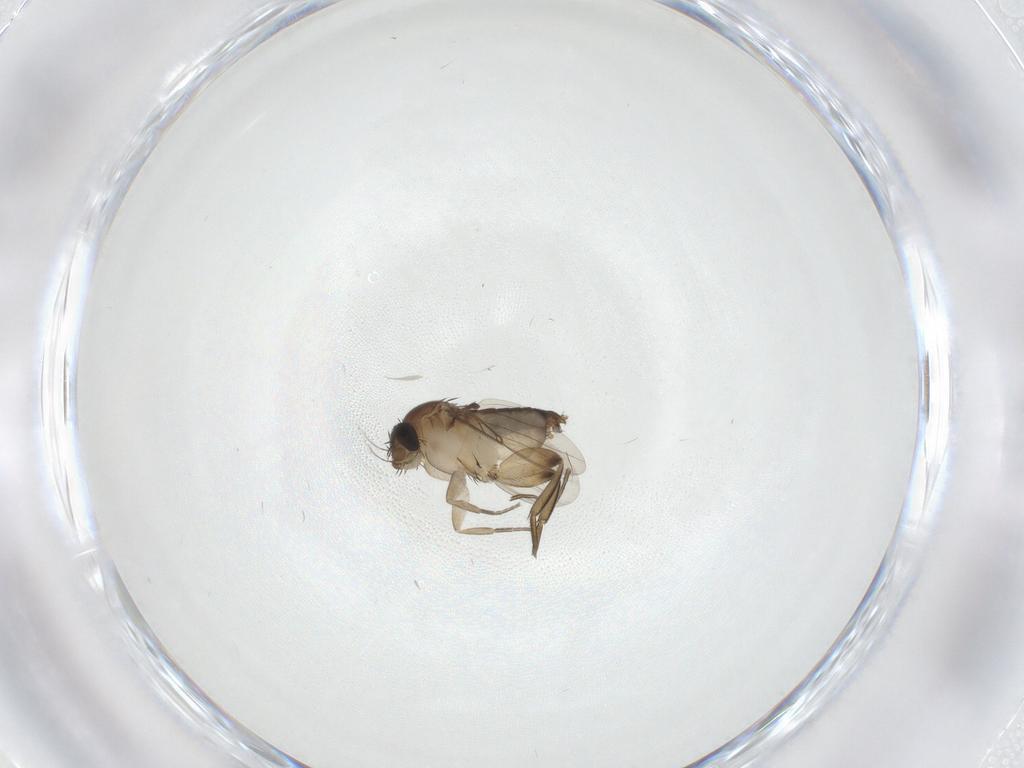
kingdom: Animalia
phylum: Arthropoda
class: Insecta
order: Diptera
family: Phoridae
